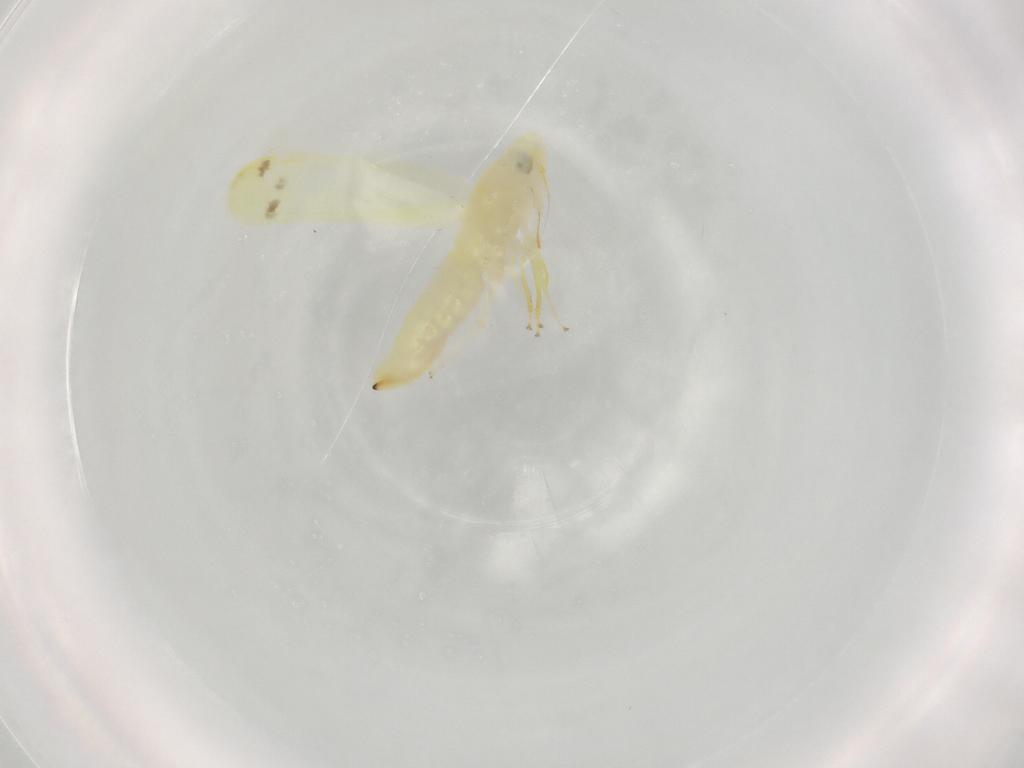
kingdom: Animalia
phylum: Arthropoda
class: Insecta
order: Hemiptera
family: Cicadellidae
